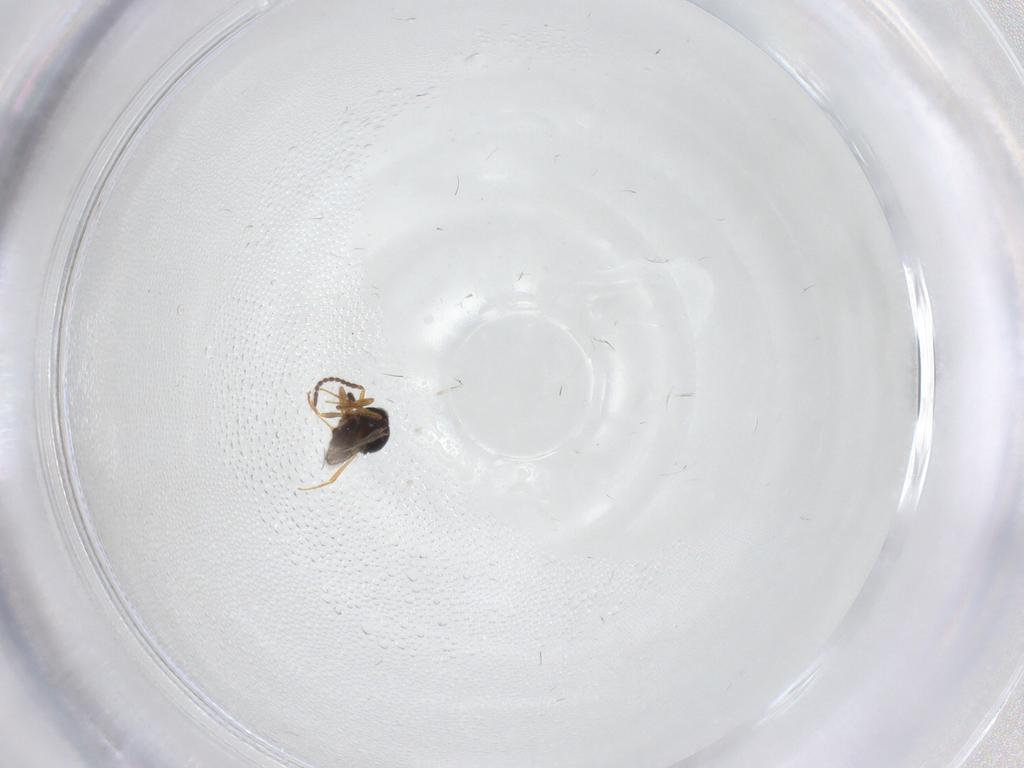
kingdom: Animalia
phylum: Arthropoda
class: Insecta
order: Hymenoptera
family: Scelionidae
